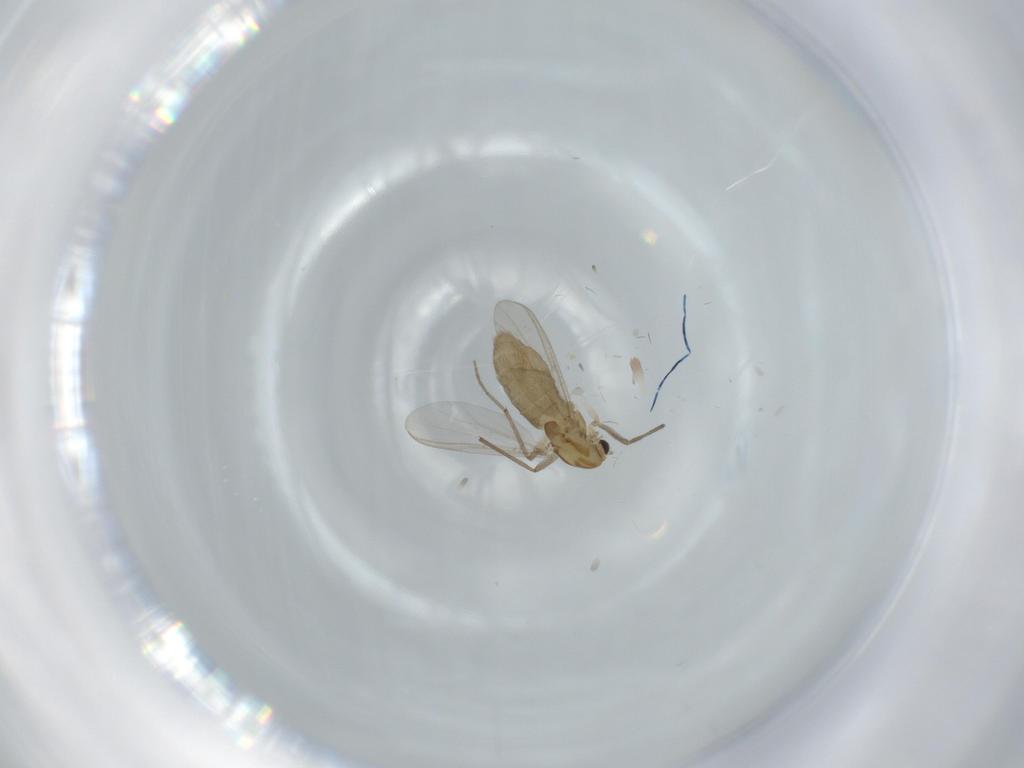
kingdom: Animalia
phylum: Arthropoda
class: Insecta
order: Diptera
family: Chironomidae
